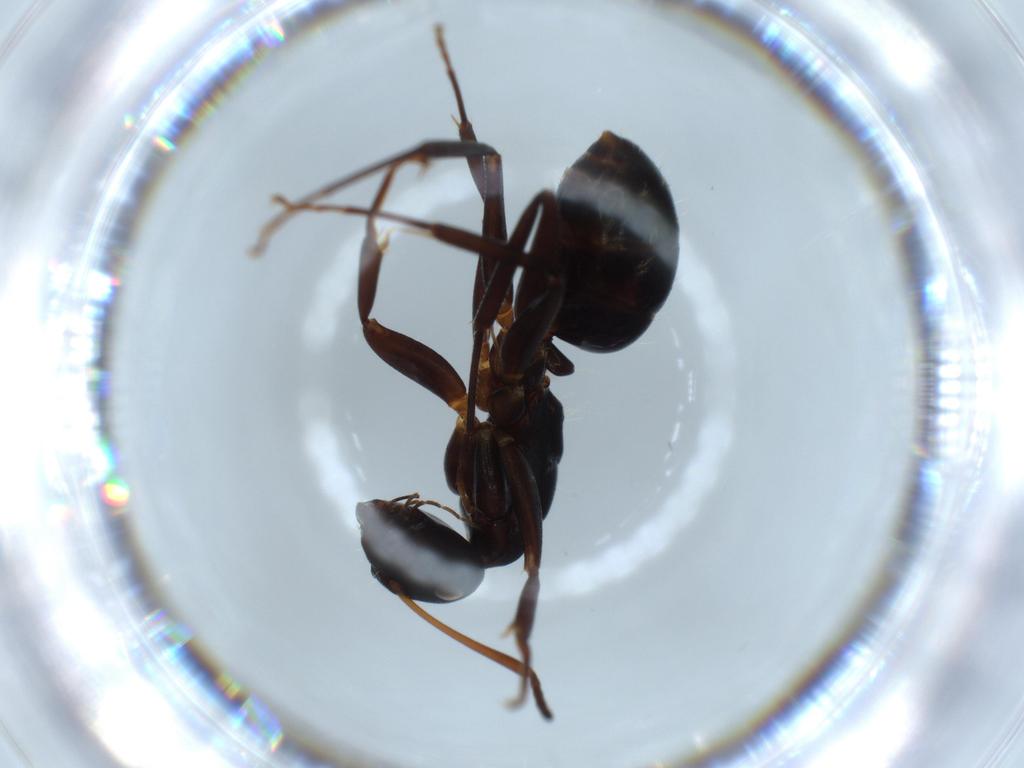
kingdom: Animalia
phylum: Arthropoda
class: Insecta
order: Hymenoptera
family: Formicidae
